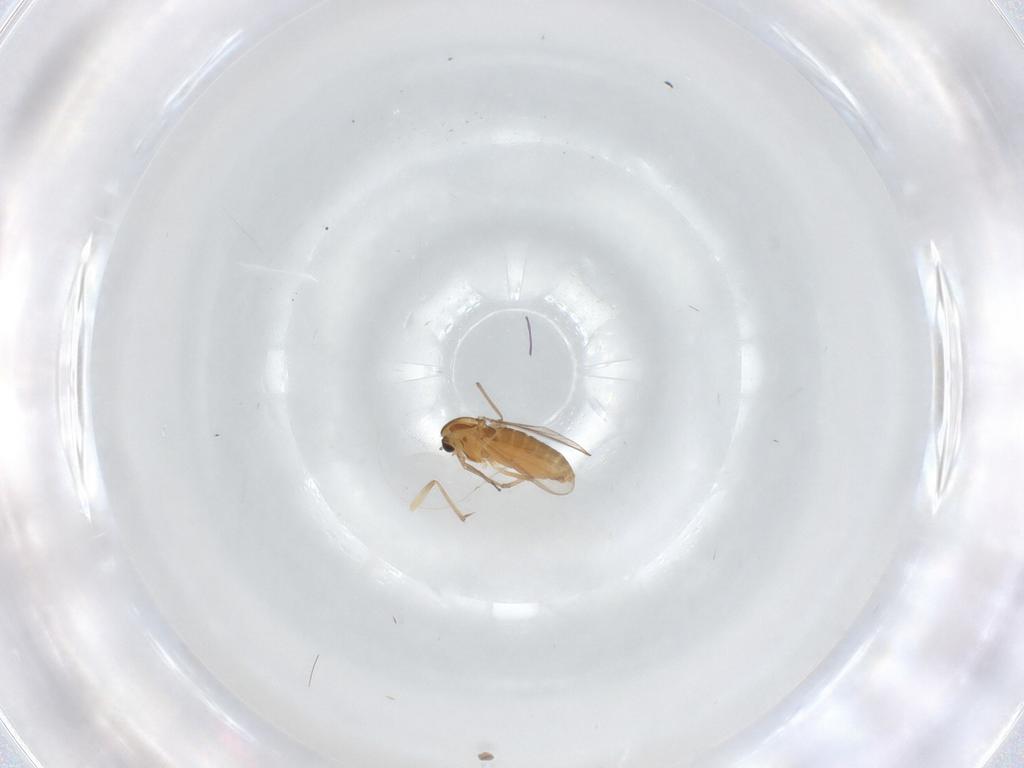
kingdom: Animalia
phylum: Arthropoda
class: Insecta
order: Diptera
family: Chironomidae
